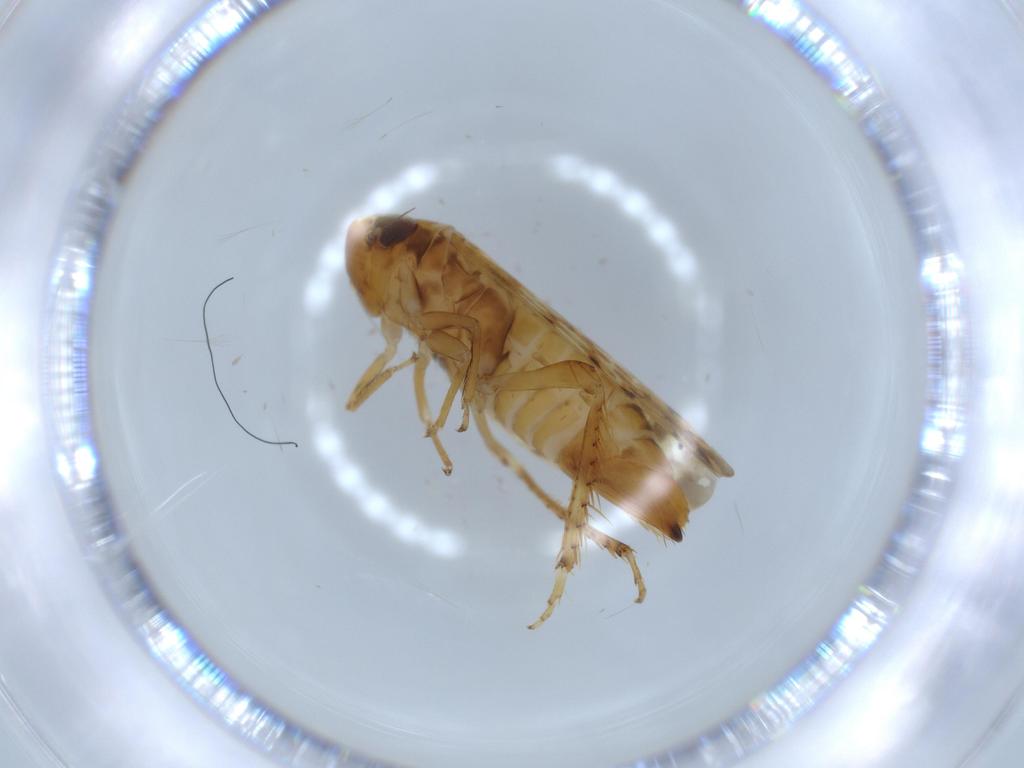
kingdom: Animalia
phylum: Arthropoda
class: Insecta
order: Hemiptera
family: Cicadellidae
